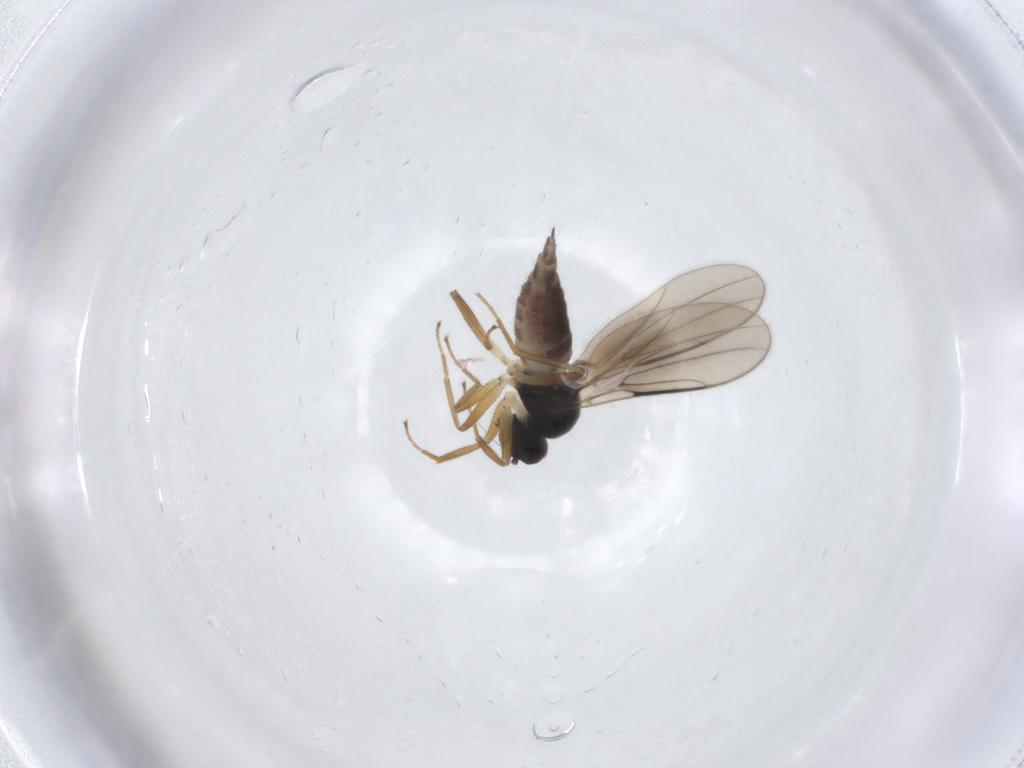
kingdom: Animalia
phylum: Arthropoda
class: Insecta
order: Diptera
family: Hybotidae
